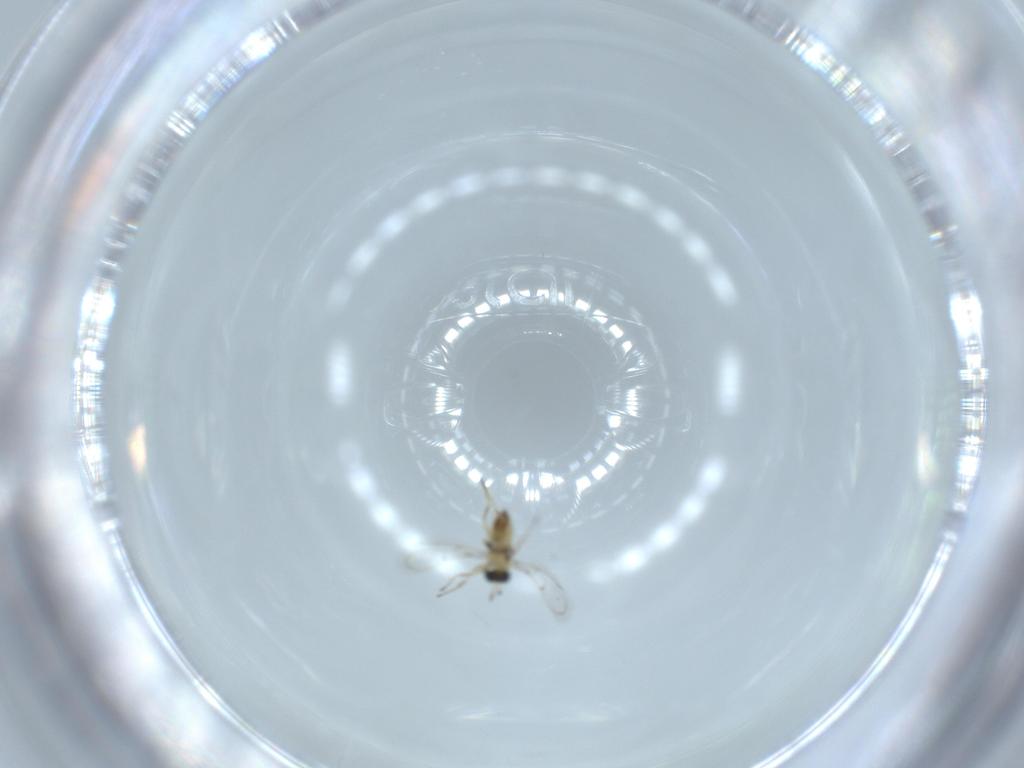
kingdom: Animalia
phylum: Arthropoda
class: Insecta
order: Hymenoptera
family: Trichogrammatidae
